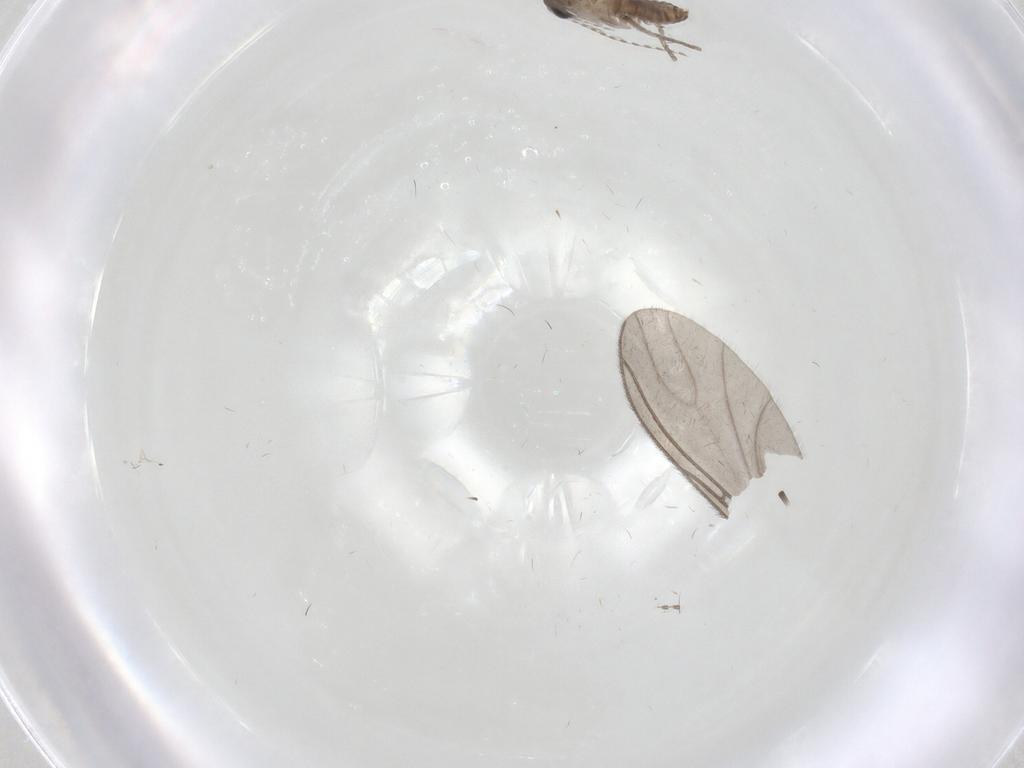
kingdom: Animalia
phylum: Arthropoda
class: Insecta
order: Diptera
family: Psychodidae
